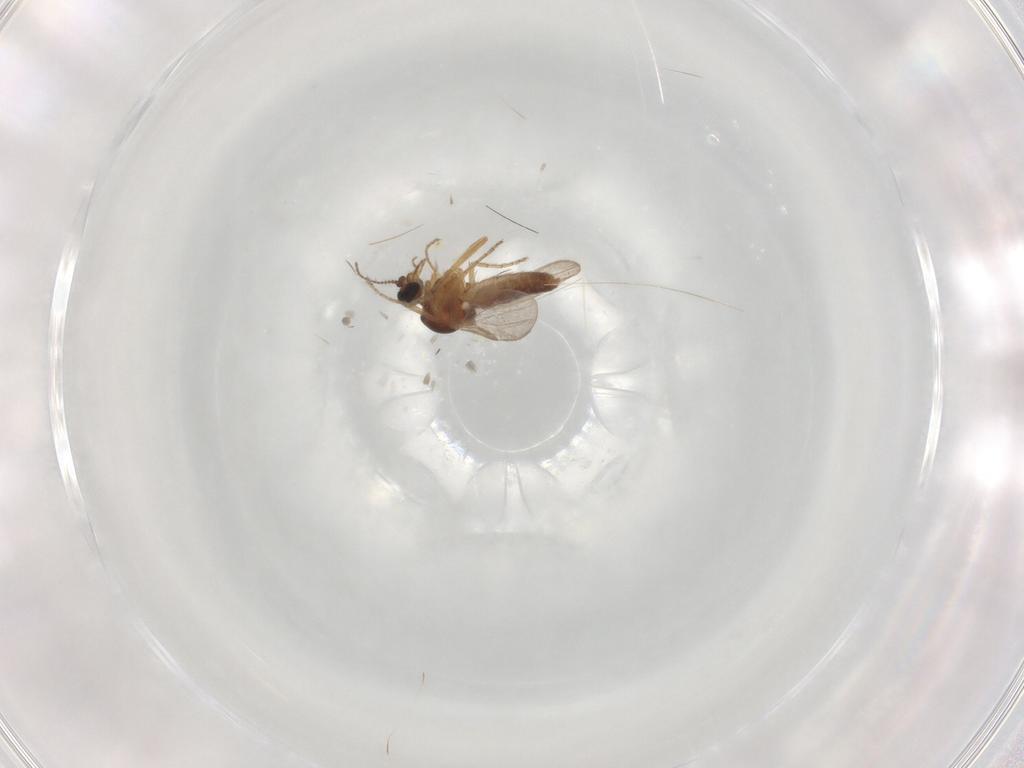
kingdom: Animalia
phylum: Arthropoda
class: Insecta
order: Diptera
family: Ceratopogonidae
